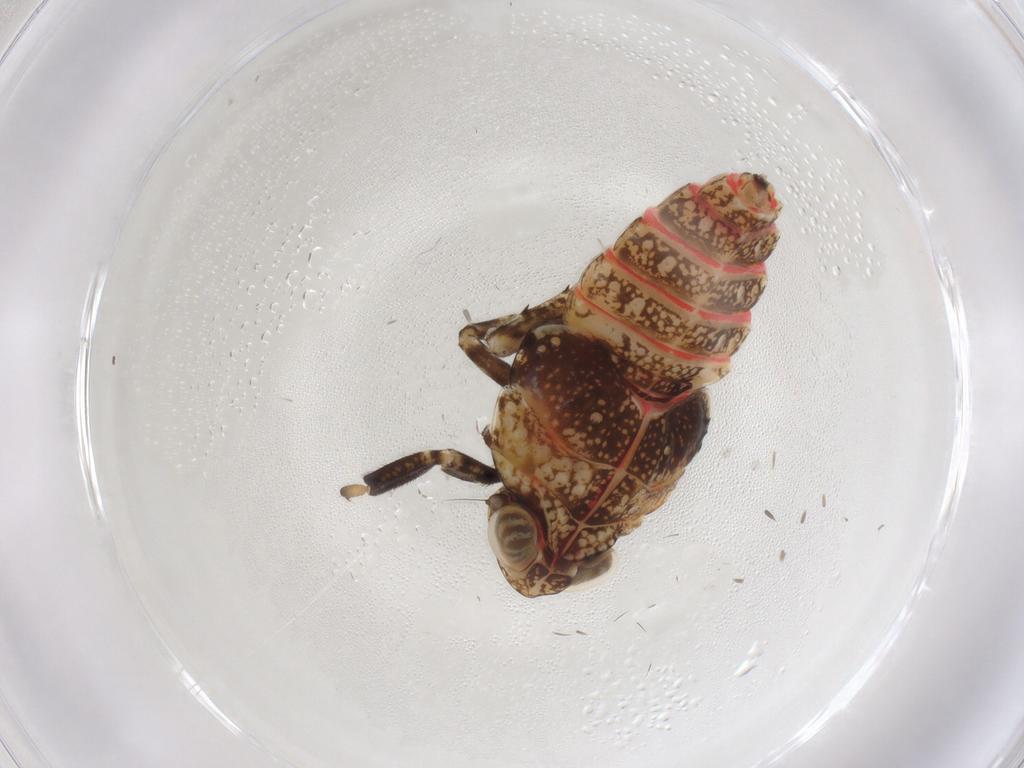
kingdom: Animalia
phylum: Arthropoda
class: Insecta
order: Hemiptera
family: Issidae
